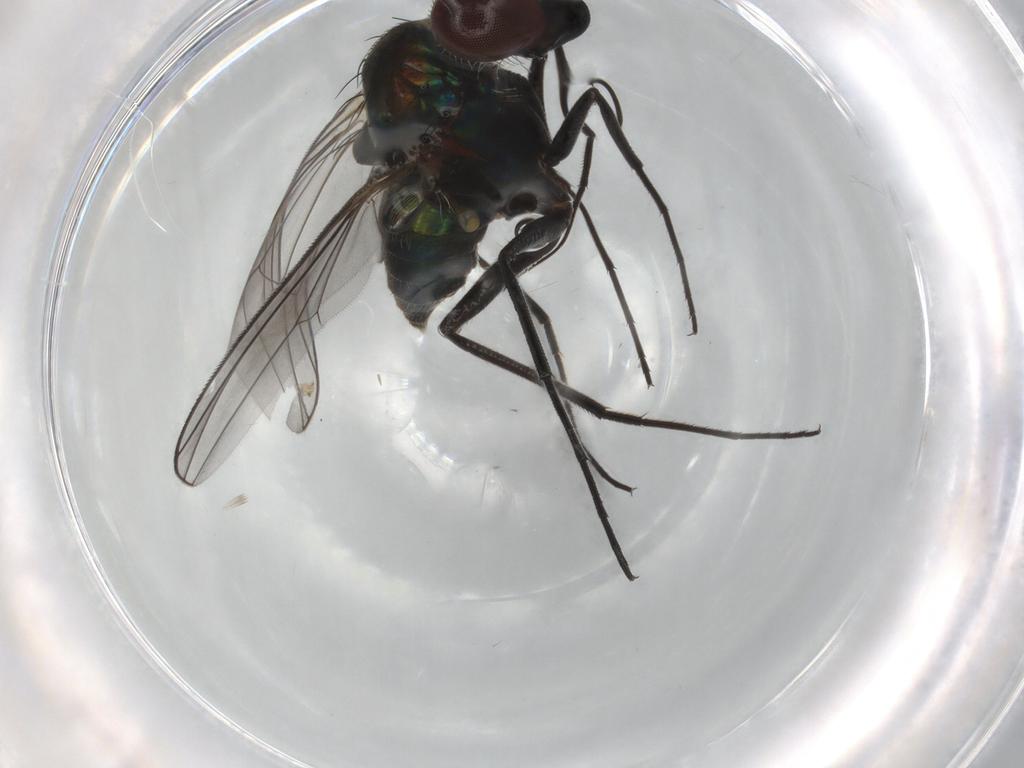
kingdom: Animalia
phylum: Arthropoda
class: Insecta
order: Diptera
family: Dolichopodidae
